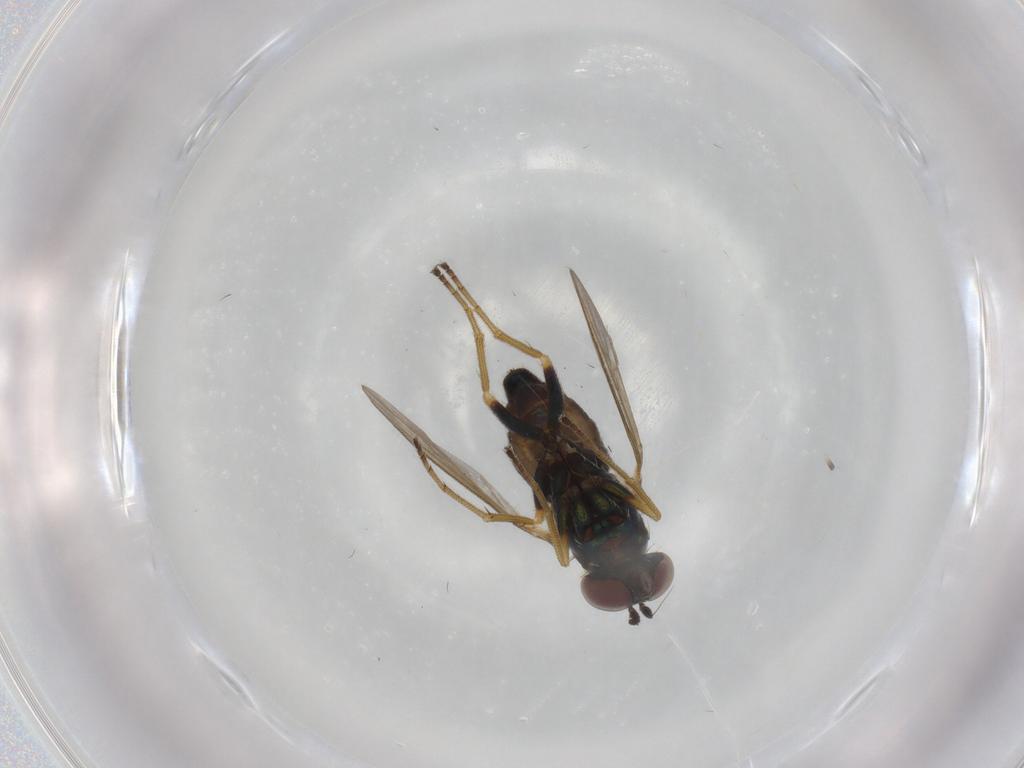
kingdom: Animalia
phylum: Arthropoda
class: Insecta
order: Diptera
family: Dolichopodidae
